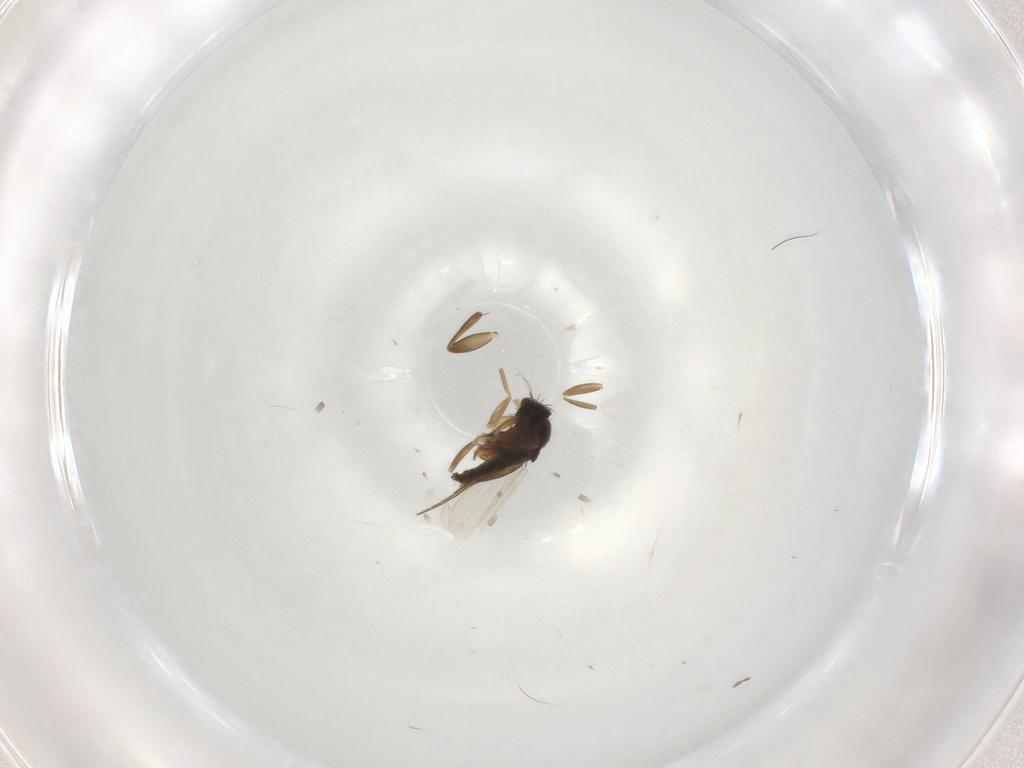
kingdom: Animalia
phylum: Arthropoda
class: Insecta
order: Diptera
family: Phoridae
